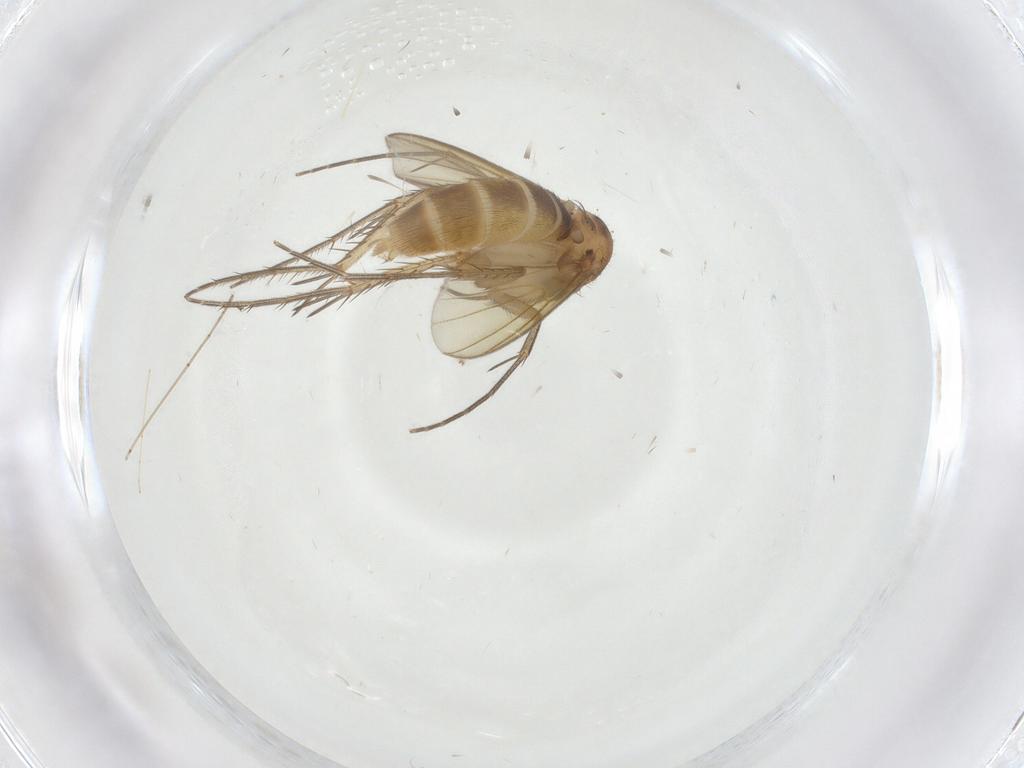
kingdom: Animalia
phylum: Arthropoda
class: Insecta
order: Diptera
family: Mycetophilidae
